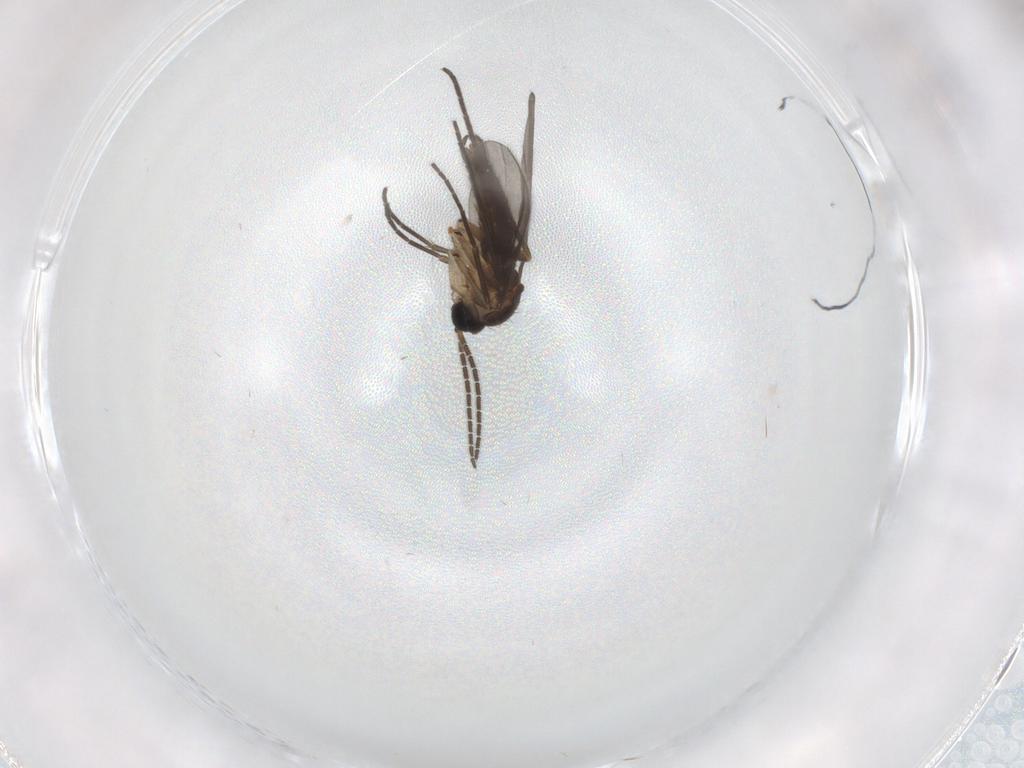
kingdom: Animalia
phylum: Arthropoda
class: Insecta
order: Diptera
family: Sciaridae
